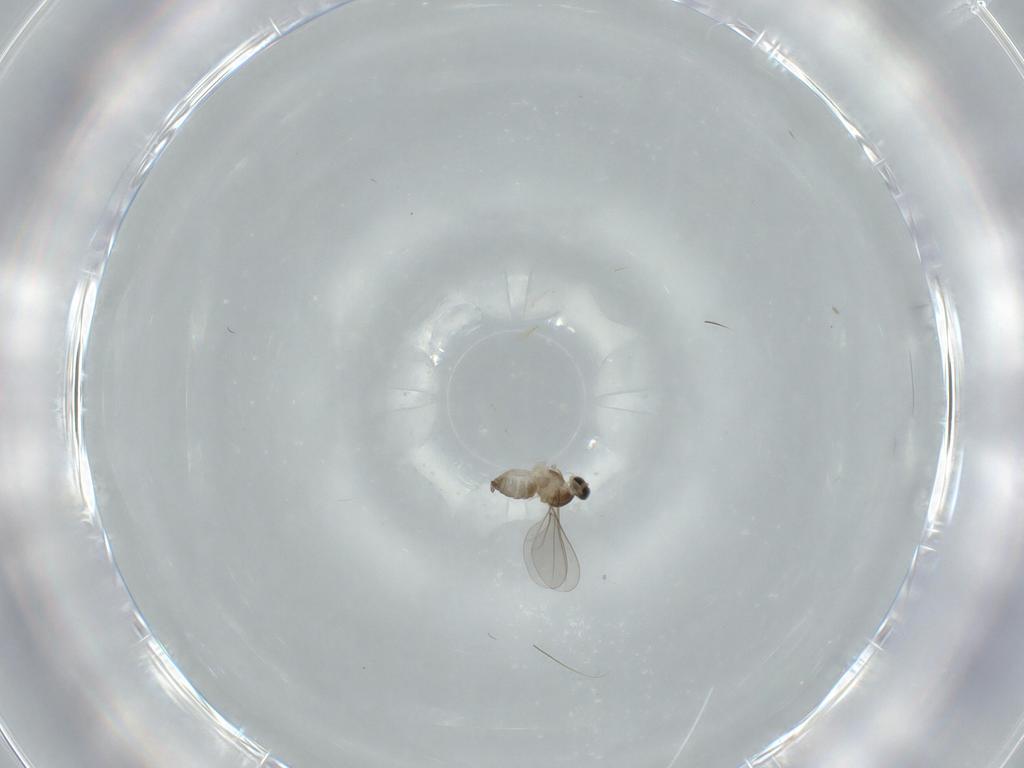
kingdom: Animalia
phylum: Arthropoda
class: Insecta
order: Diptera
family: Cecidomyiidae
